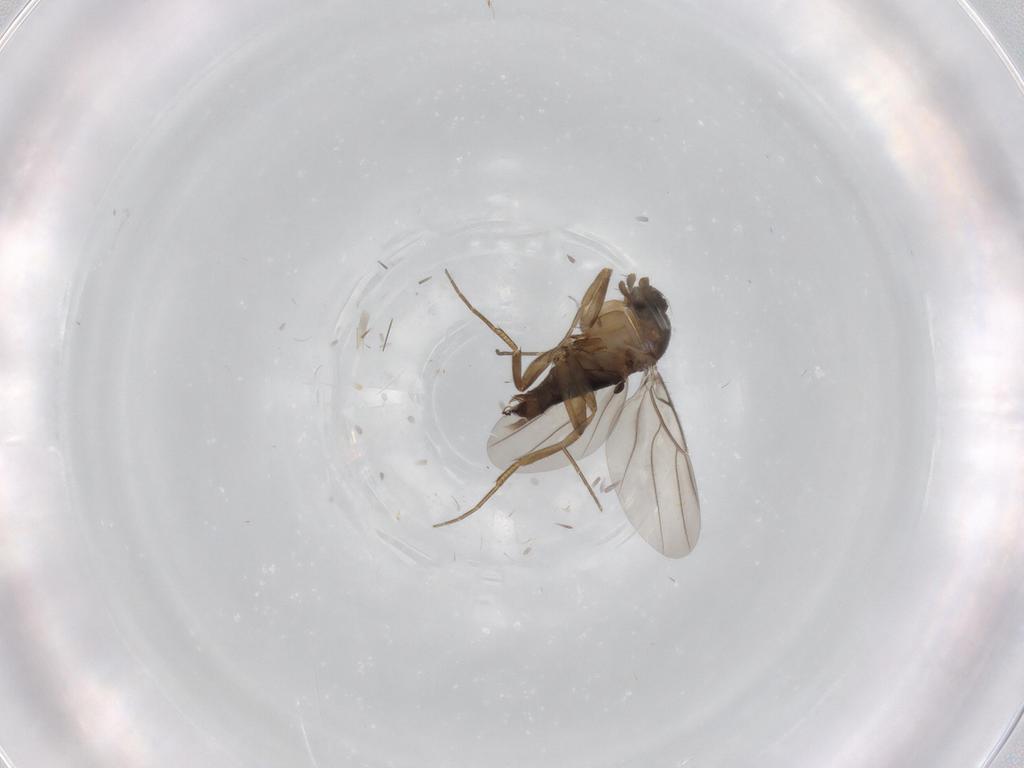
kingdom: Animalia
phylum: Arthropoda
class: Insecta
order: Diptera
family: Phoridae
